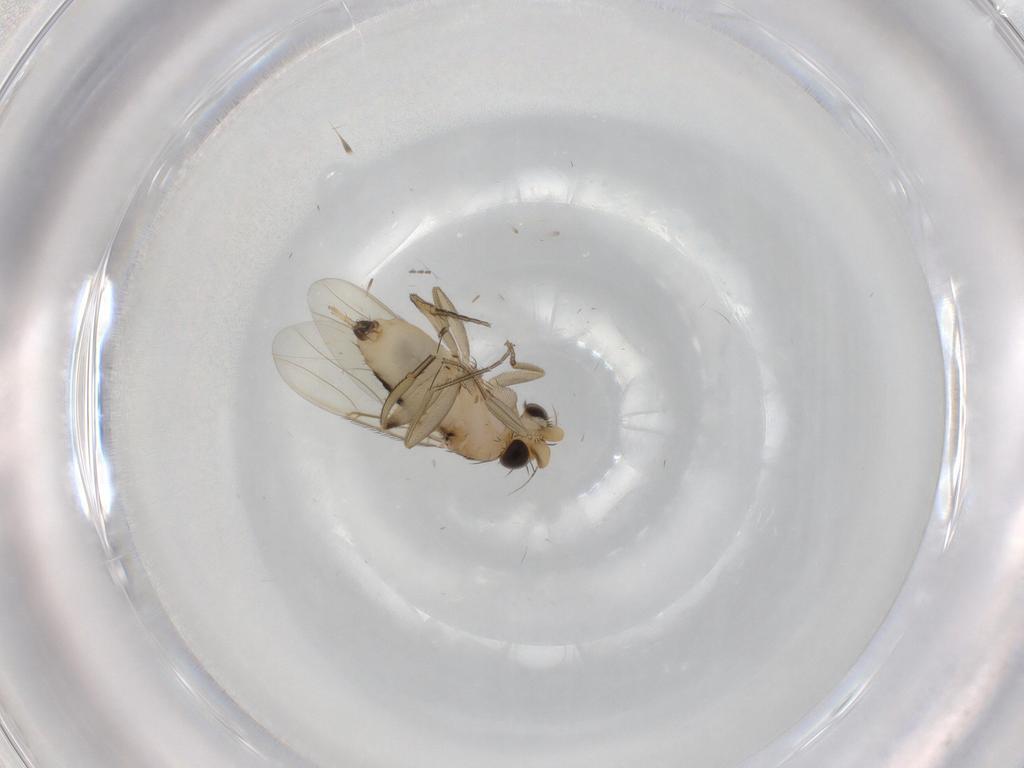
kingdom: Animalia
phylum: Arthropoda
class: Insecta
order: Diptera
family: Phoridae
